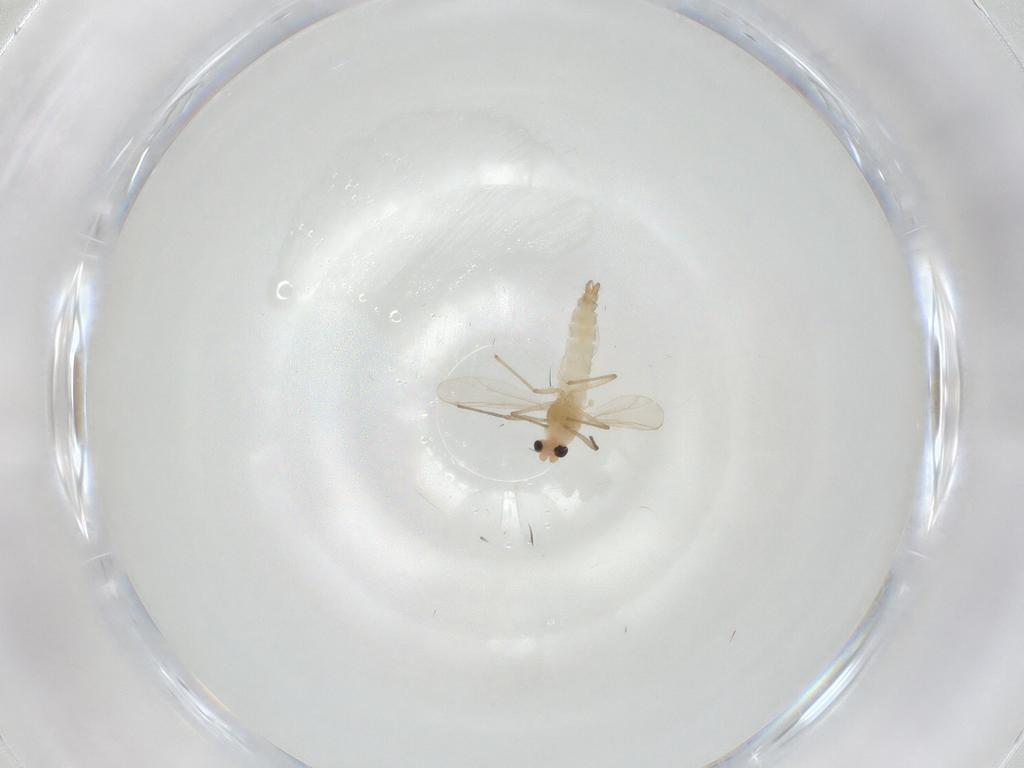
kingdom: Animalia
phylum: Arthropoda
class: Insecta
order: Diptera
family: Chironomidae
